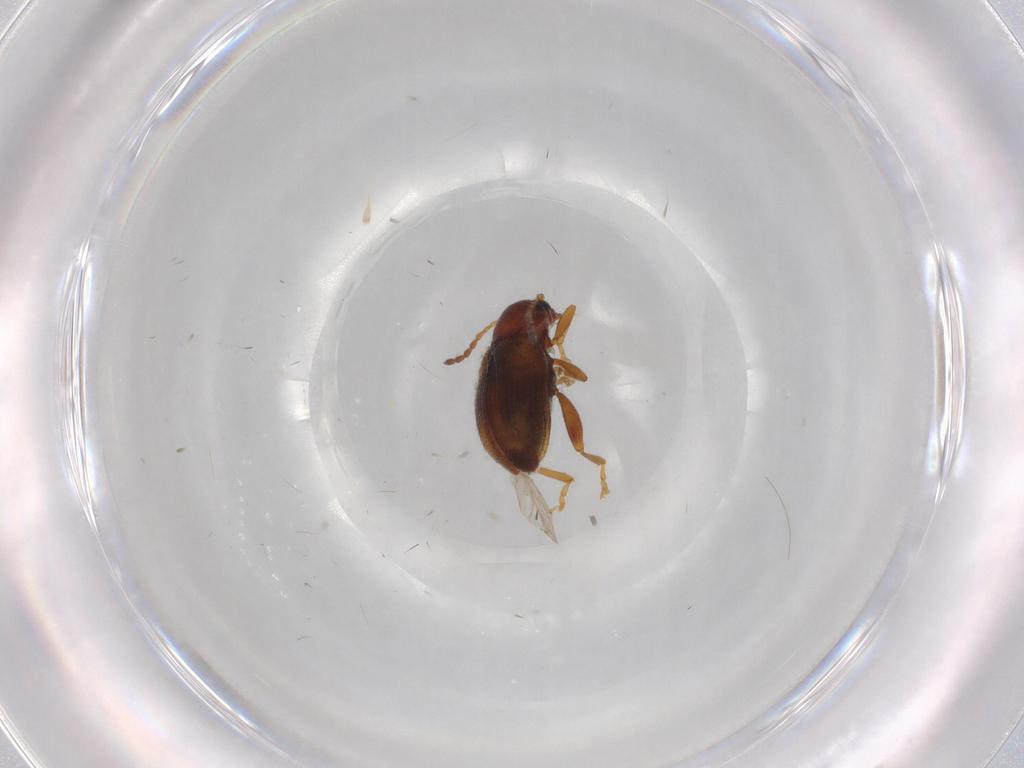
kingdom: Animalia
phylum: Arthropoda
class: Insecta
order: Coleoptera
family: Chrysomelidae
